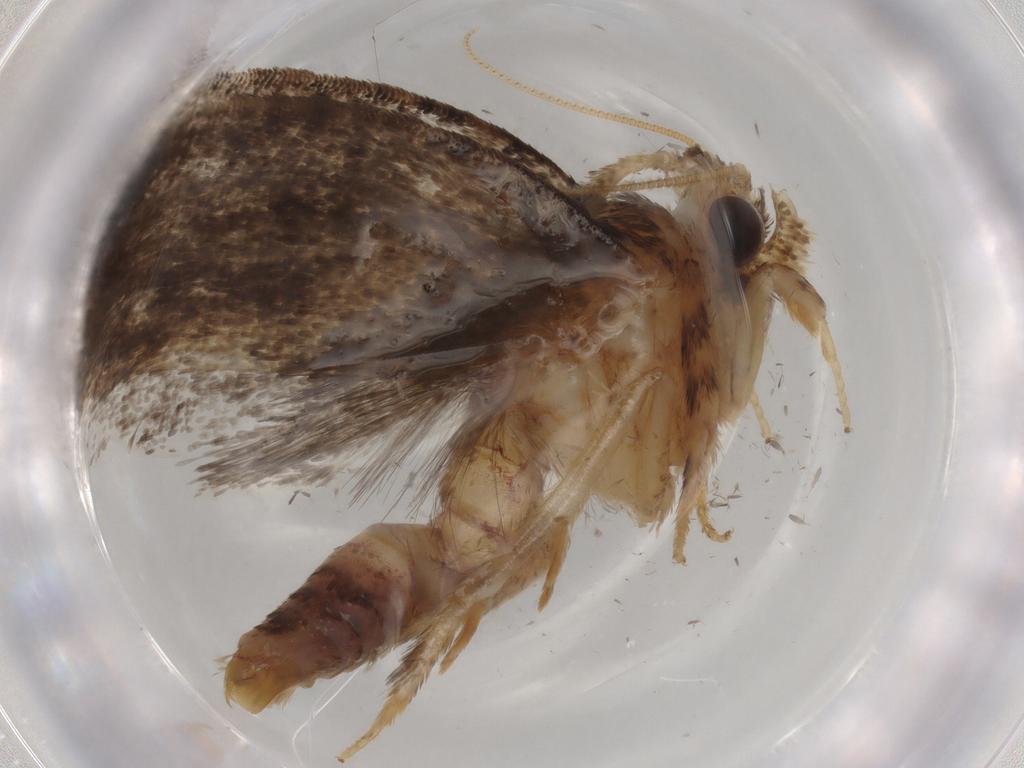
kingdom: Animalia
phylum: Arthropoda
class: Insecta
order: Lepidoptera
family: Tineidae
